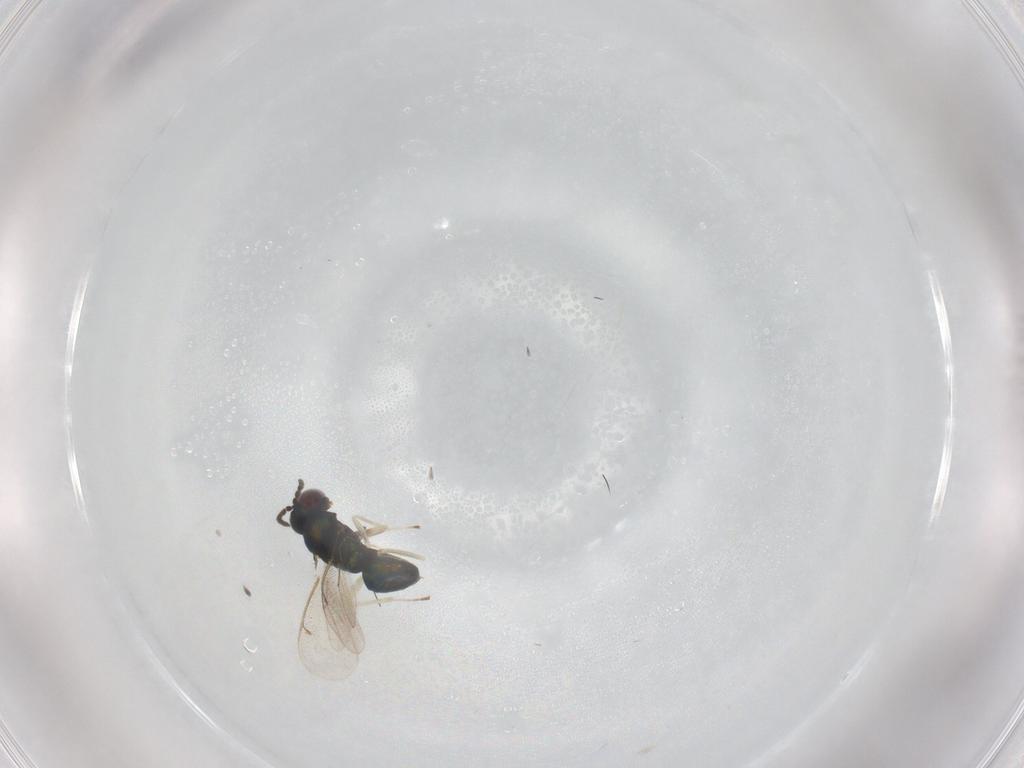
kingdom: Animalia
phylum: Arthropoda
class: Insecta
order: Hymenoptera
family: Eulophidae
